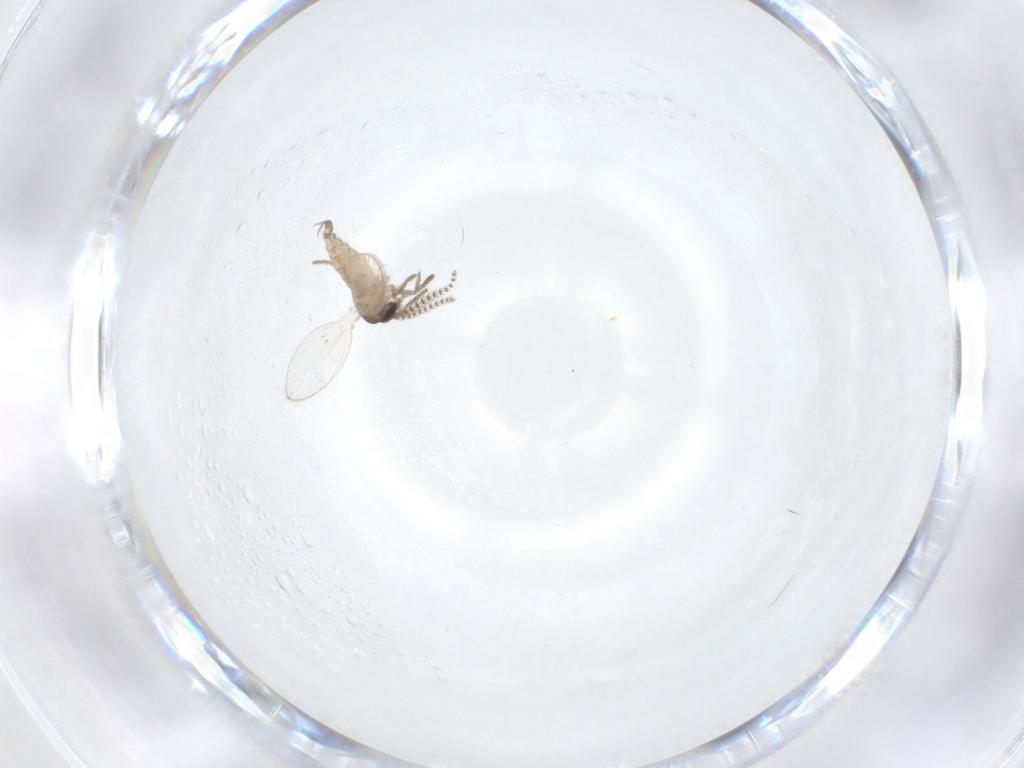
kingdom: Animalia
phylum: Arthropoda
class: Insecta
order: Diptera
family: Psychodidae
